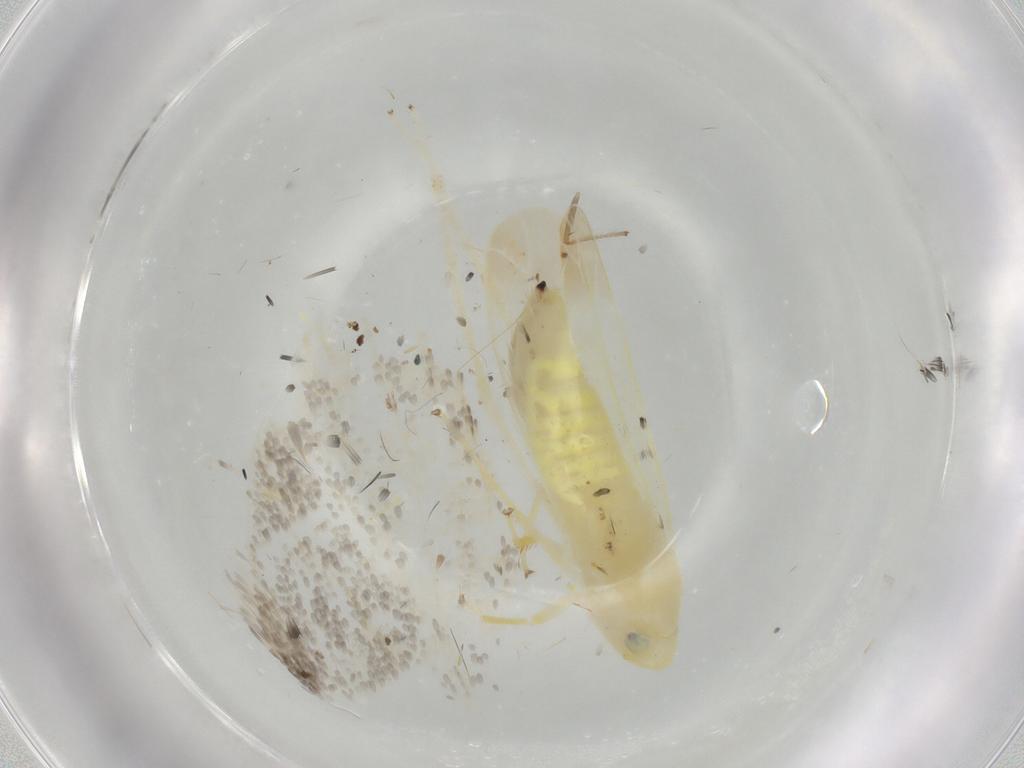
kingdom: Animalia
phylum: Arthropoda
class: Insecta
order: Hemiptera
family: Cicadellidae
